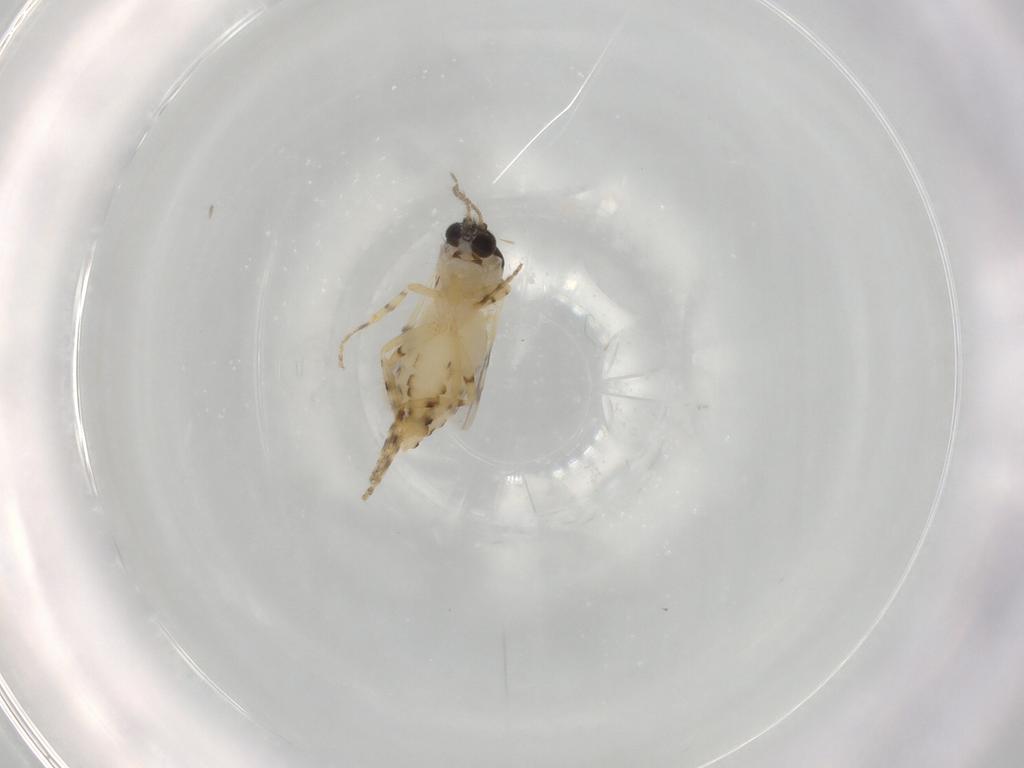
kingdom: Animalia
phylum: Arthropoda
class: Insecta
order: Diptera
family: Ceratopogonidae
